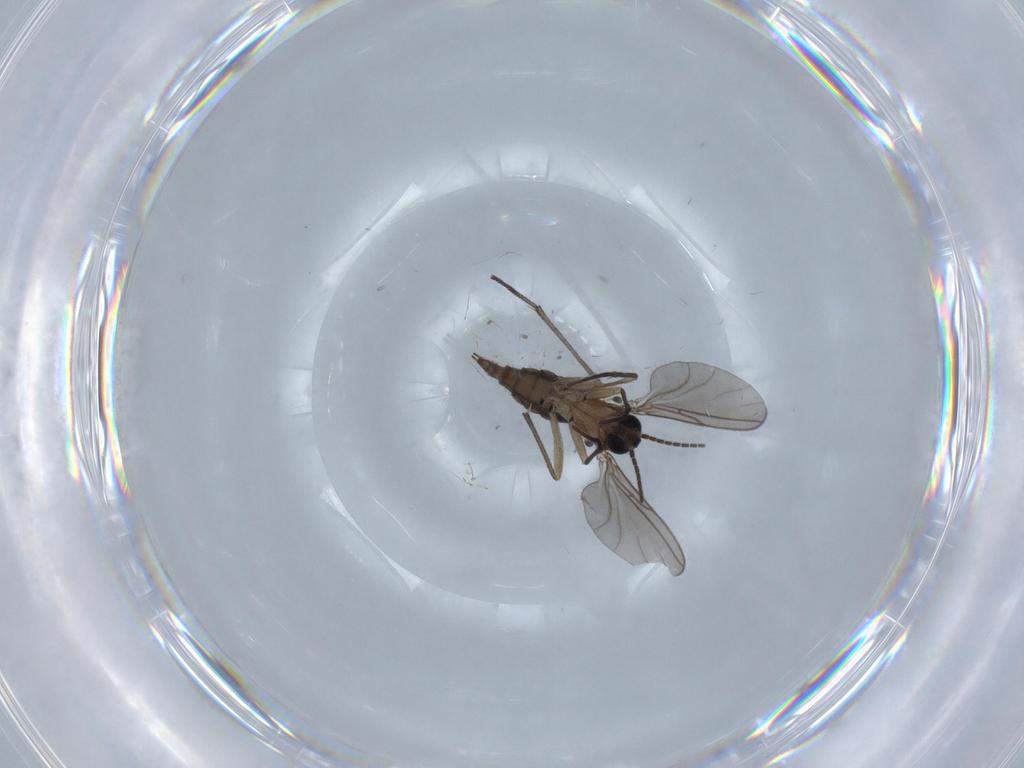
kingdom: Animalia
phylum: Arthropoda
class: Insecta
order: Diptera
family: Sciaridae
